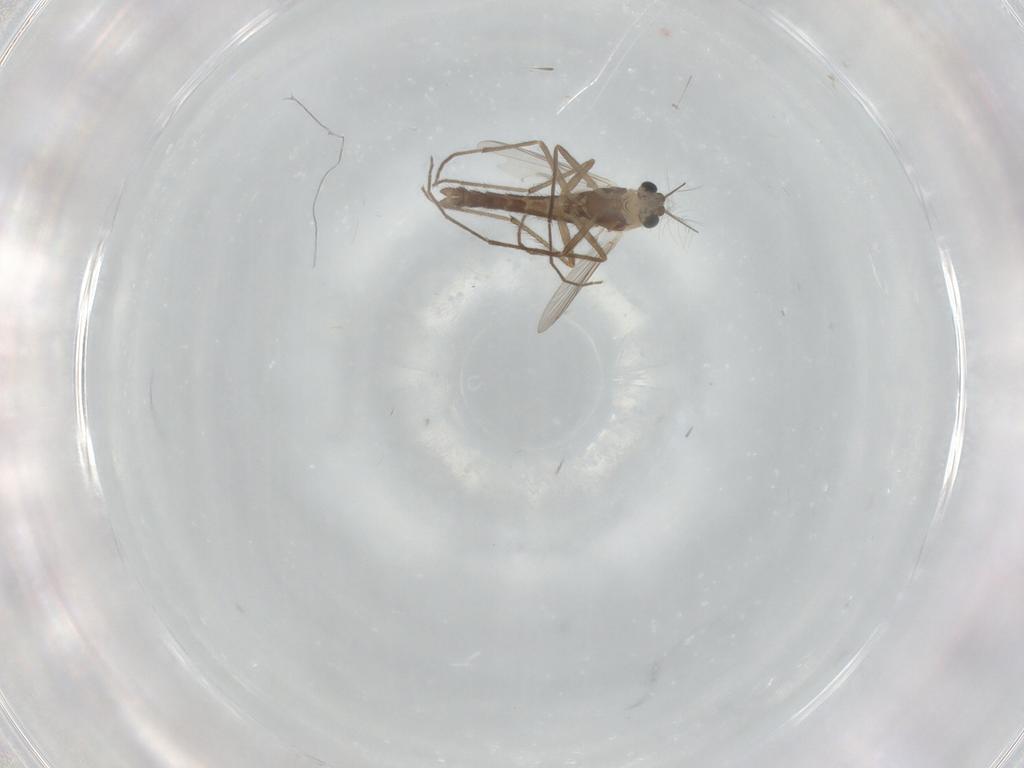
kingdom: Animalia
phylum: Arthropoda
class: Insecta
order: Diptera
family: Chironomidae
